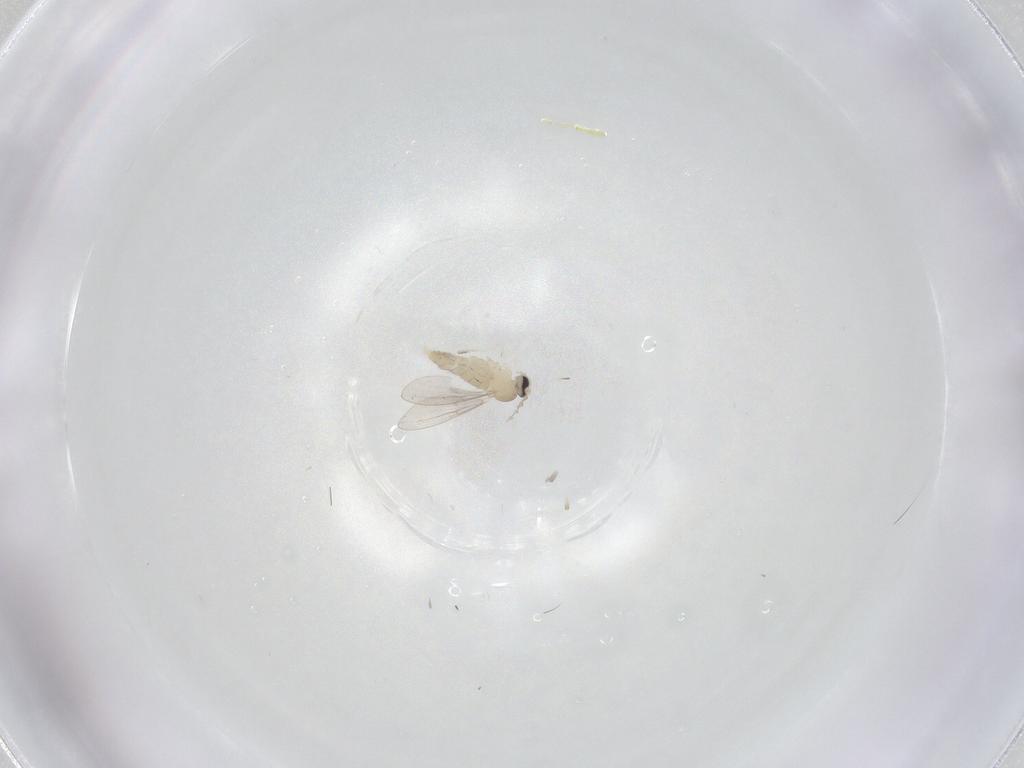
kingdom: Animalia
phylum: Arthropoda
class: Insecta
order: Diptera
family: Cecidomyiidae
